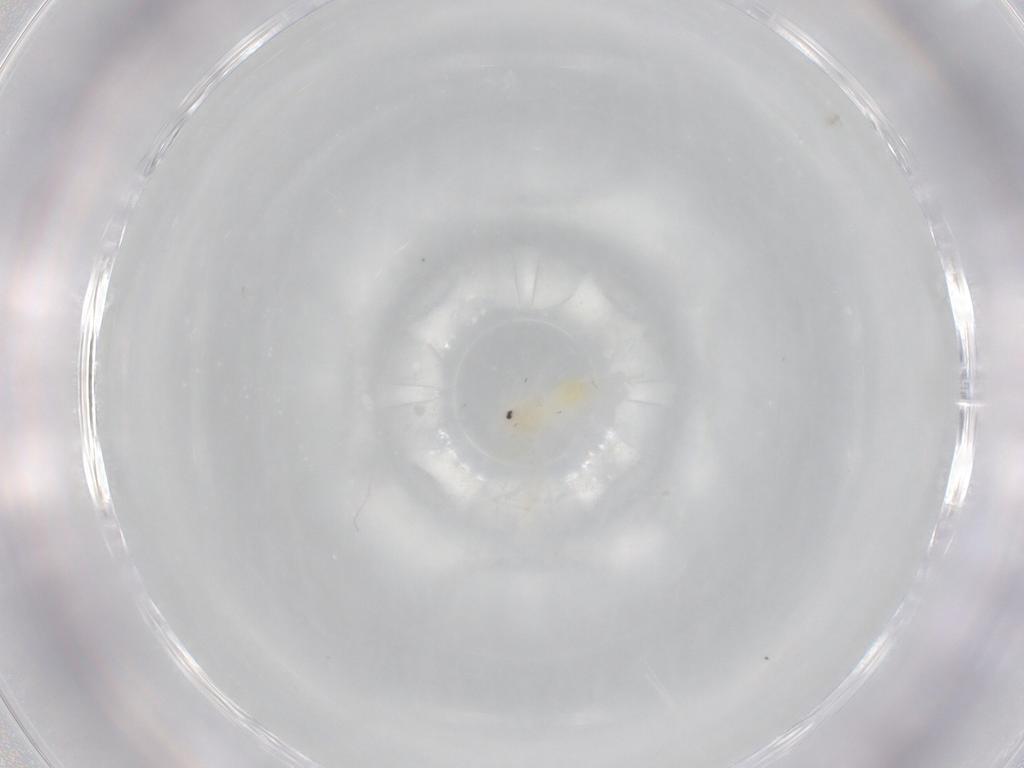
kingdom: Animalia
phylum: Arthropoda
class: Insecta
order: Hemiptera
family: Aleyrodidae
